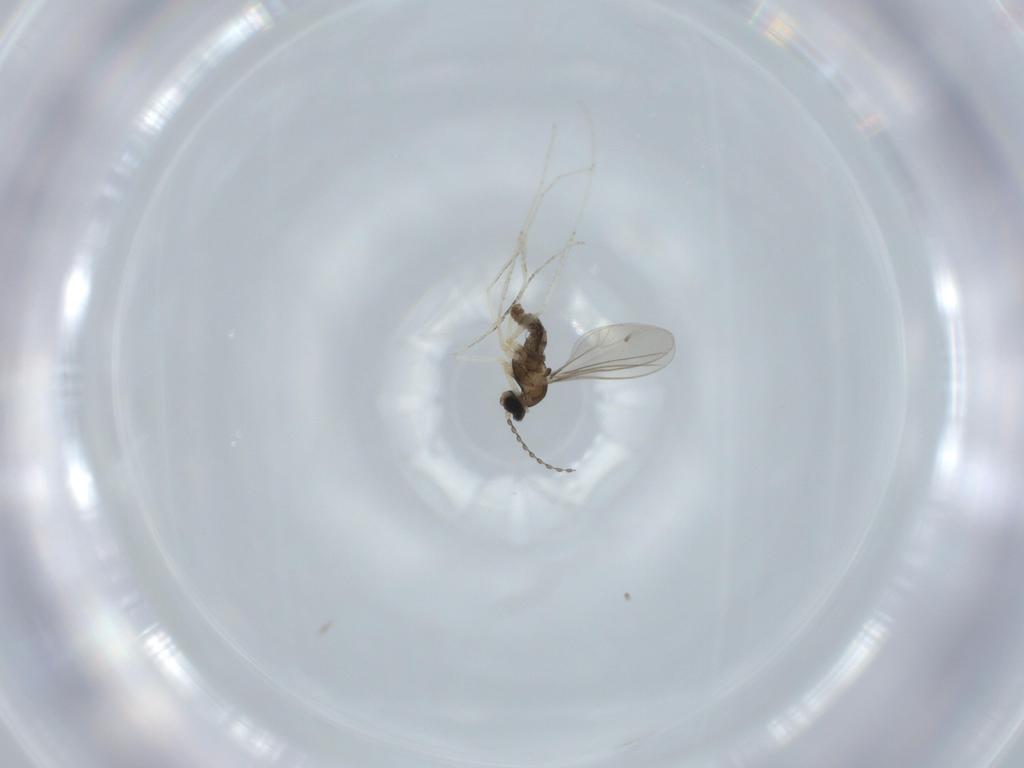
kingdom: Animalia
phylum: Arthropoda
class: Insecta
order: Diptera
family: Cecidomyiidae
